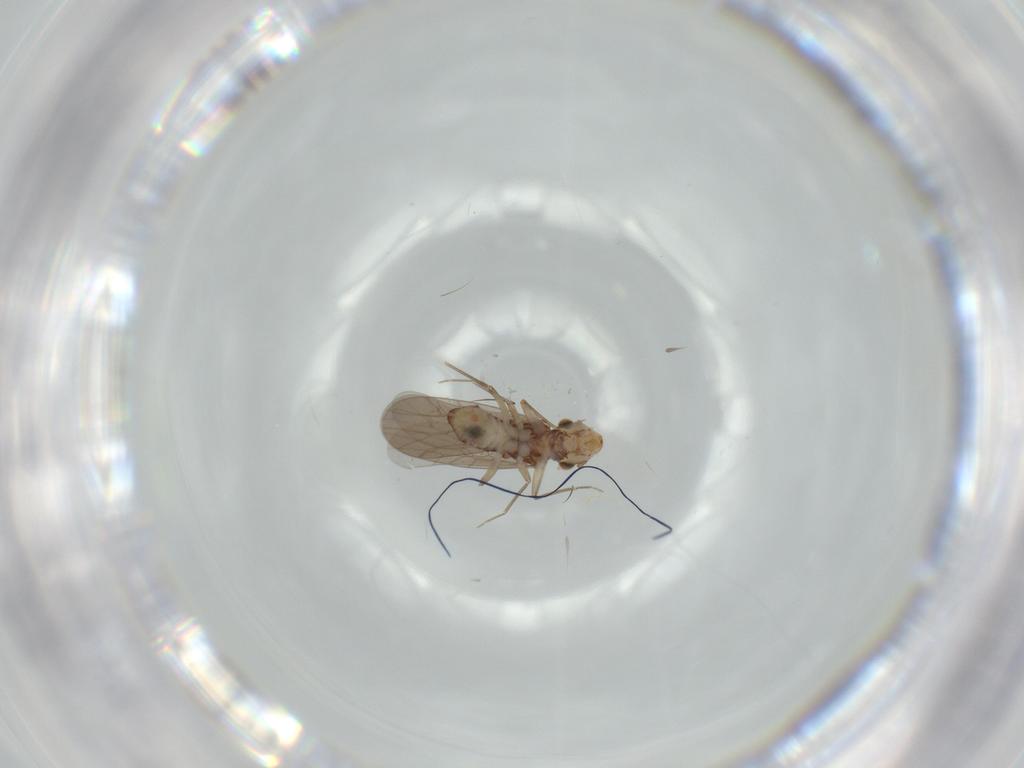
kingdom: Animalia
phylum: Arthropoda
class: Insecta
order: Psocodea
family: Lepidopsocidae
